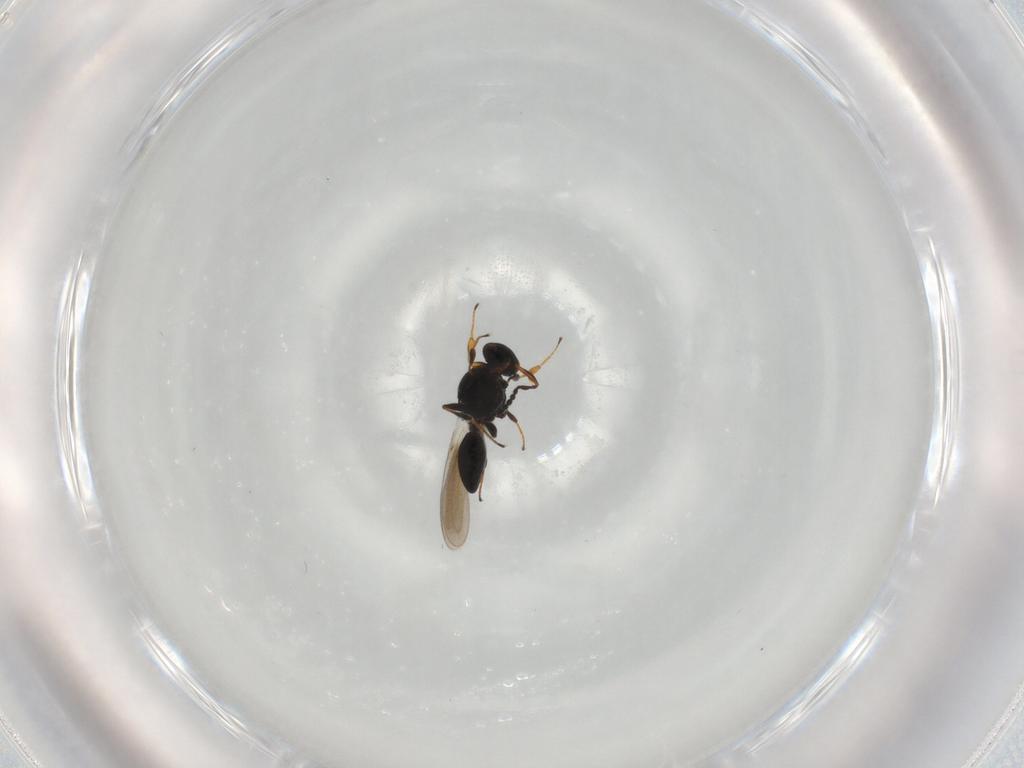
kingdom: Animalia
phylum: Arthropoda
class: Insecta
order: Hymenoptera
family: Platygastridae
